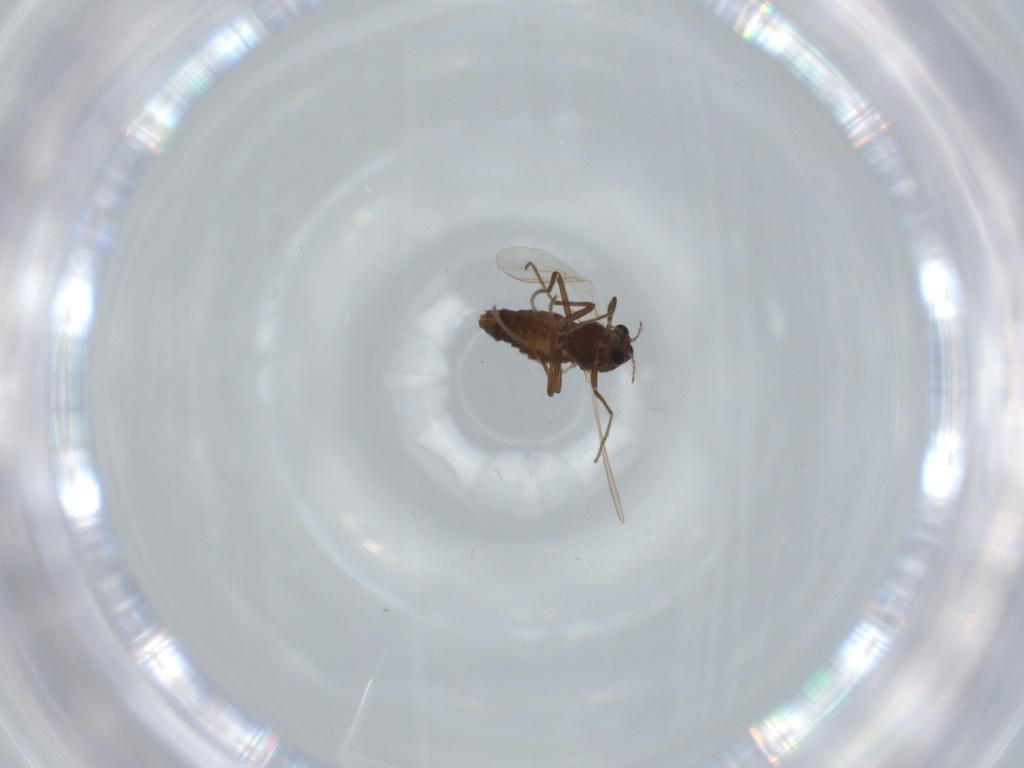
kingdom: Animalia
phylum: Arthropoda
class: Insecta
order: Diptera
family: Chironomidae
